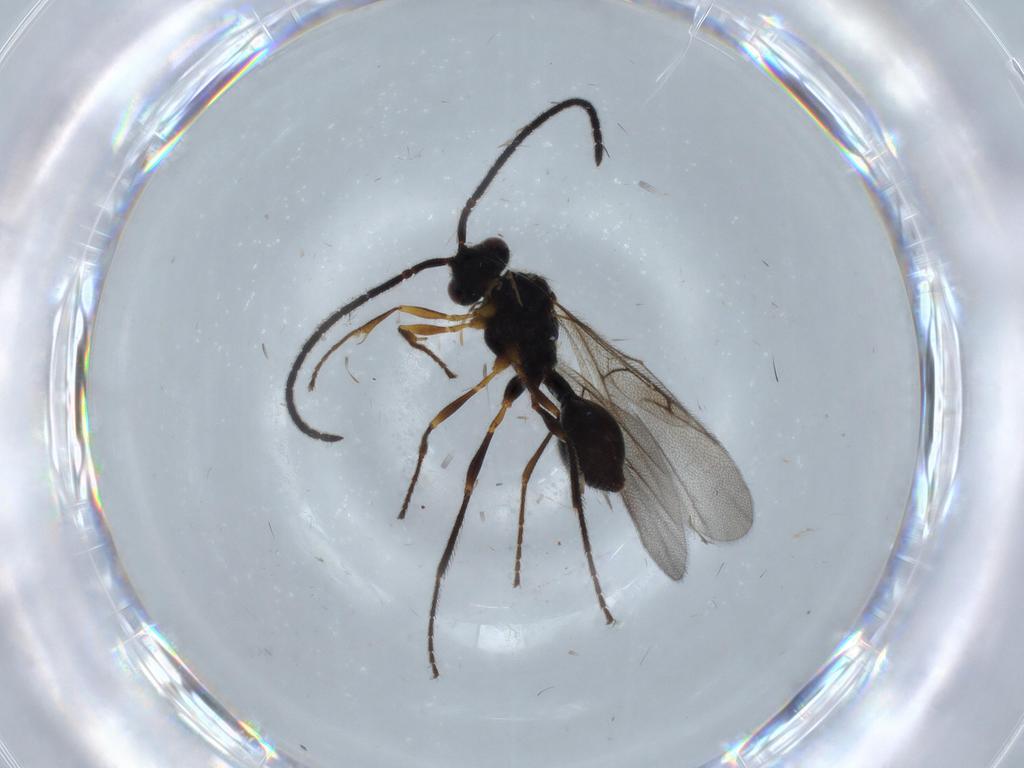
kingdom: Animalia
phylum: Arthropoda
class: Insecta
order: Hymenoptera
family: Diapriidae
